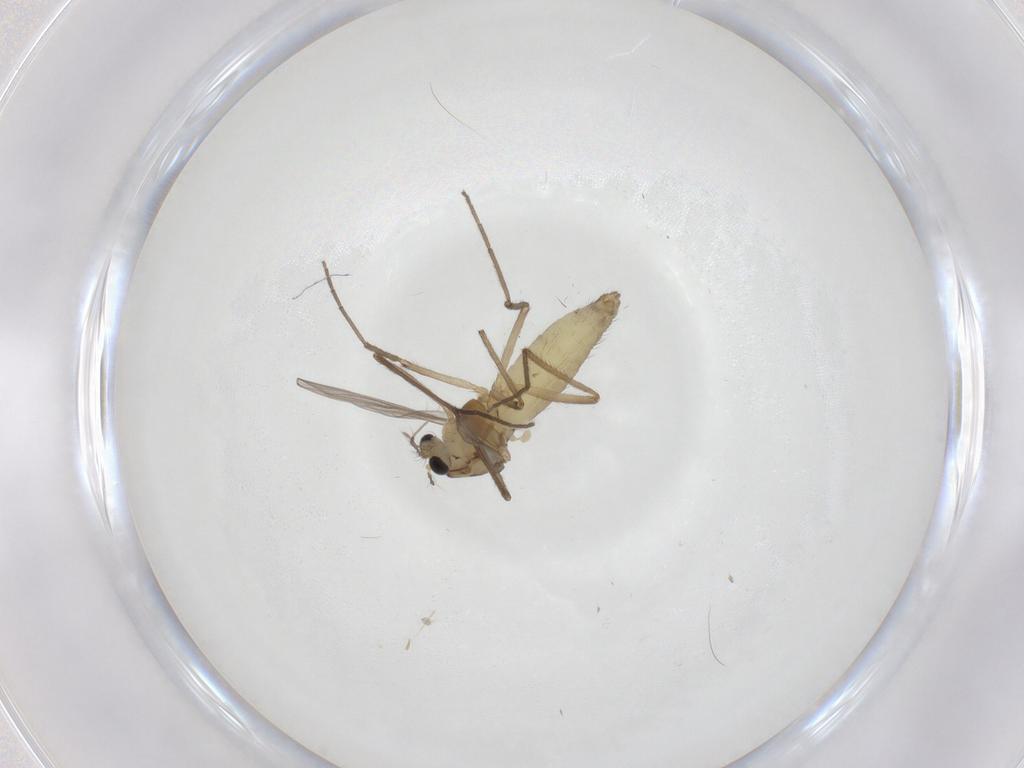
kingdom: Animalia
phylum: Arthropoda
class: Insecta
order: Diptera
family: Chironomidae
